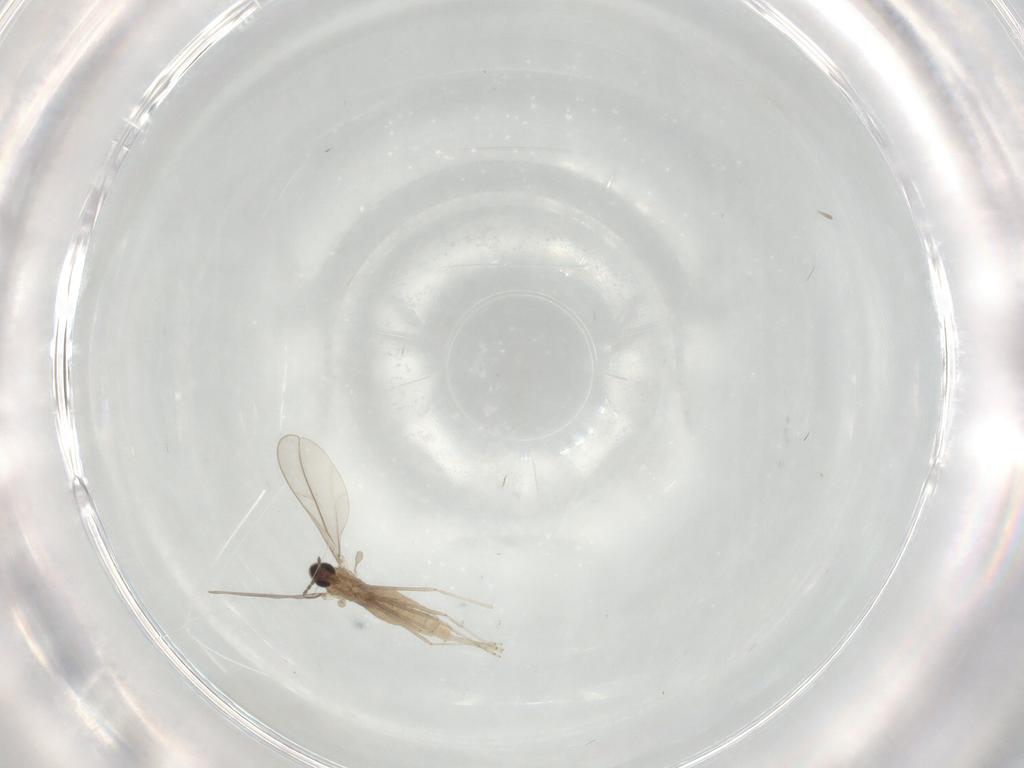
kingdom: Animalia
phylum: Arthropoda
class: Insecta
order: Diptera
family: Cecidomyiidae
